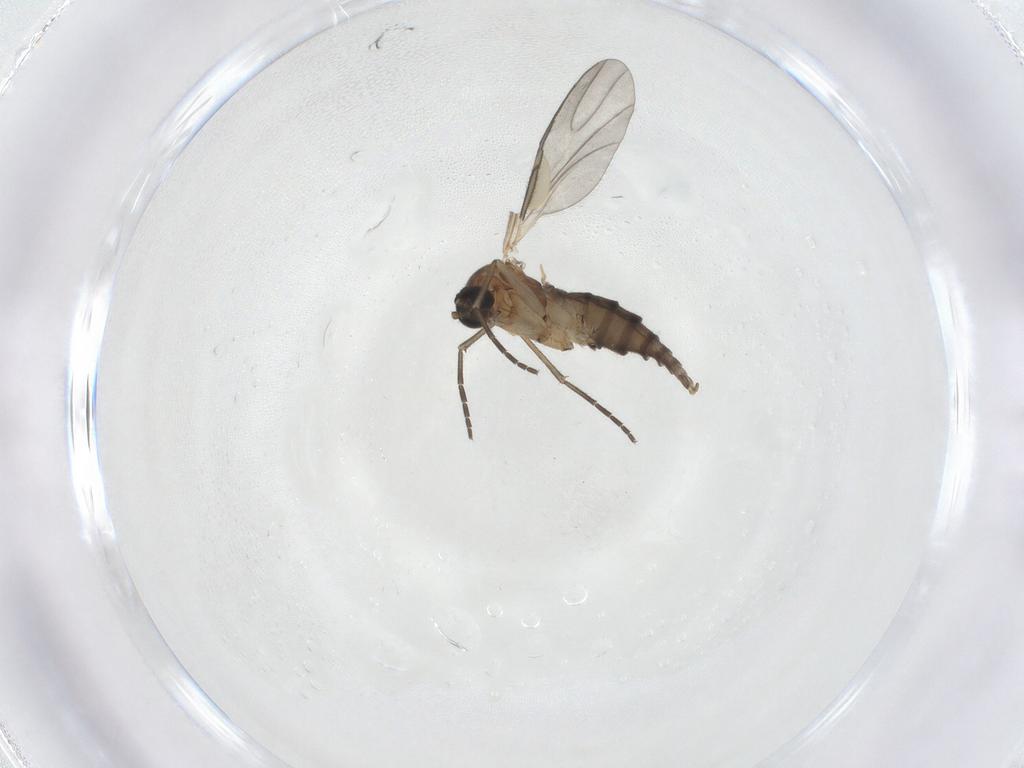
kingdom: Animalia
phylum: Arthropoda
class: Insecta
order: Diptera
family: Sciaridae
